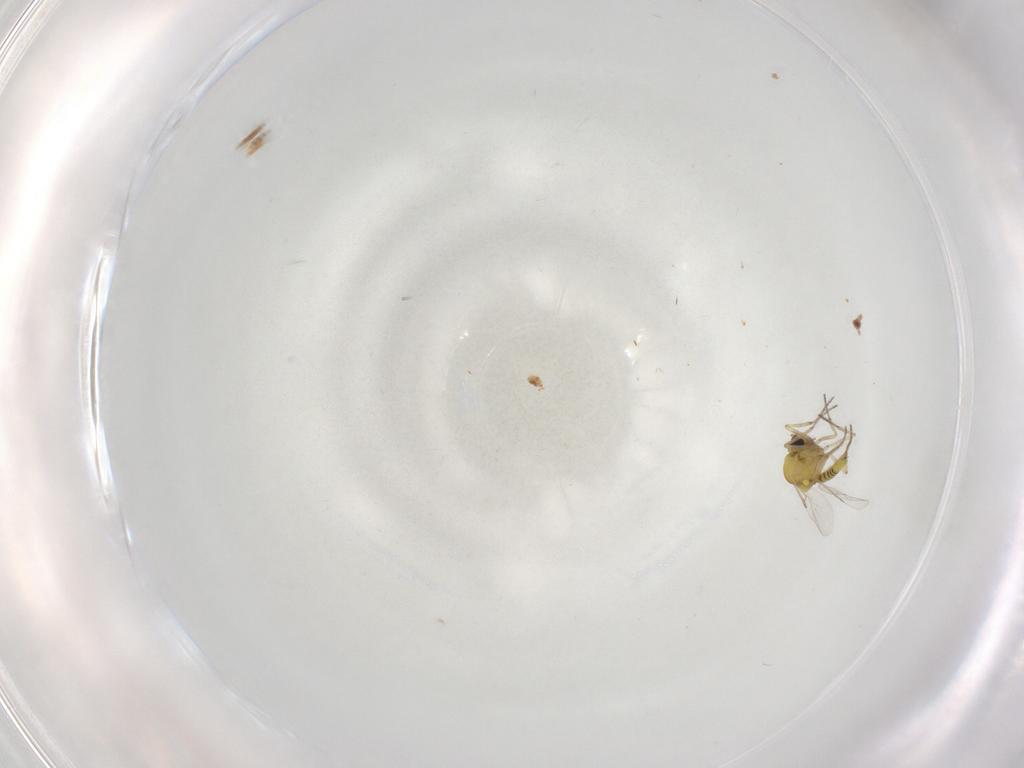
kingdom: Animalia
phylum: Arthropoda
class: Insecta
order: Diptera
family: Ceratopogonidae
